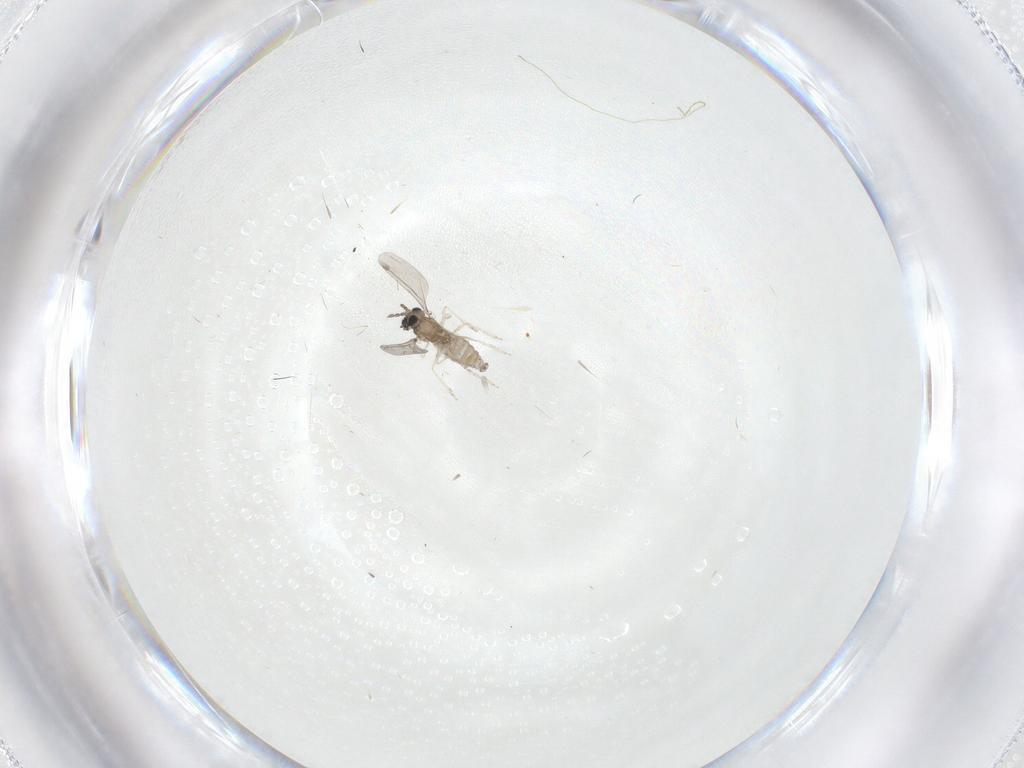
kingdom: Animalia
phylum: Arthropoda
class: Insecta
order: Diptera
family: Cecidomyiidae
